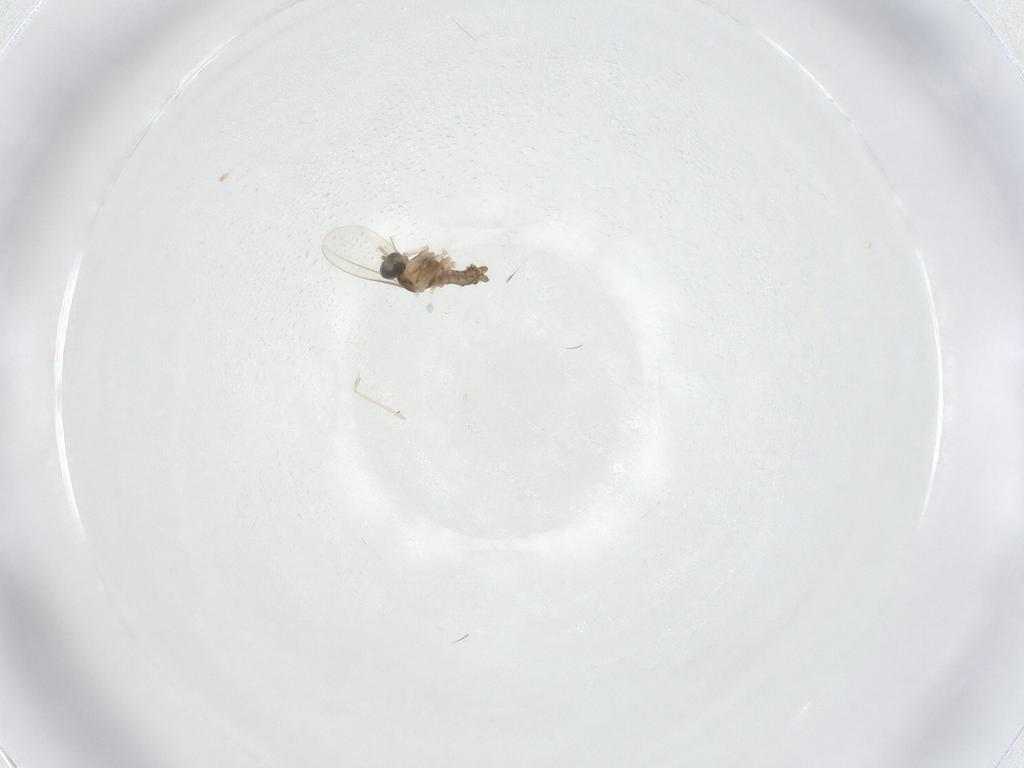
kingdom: Animalia
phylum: Arthropoda
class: Insecta
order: Diptera
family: Cecidomyiidae
